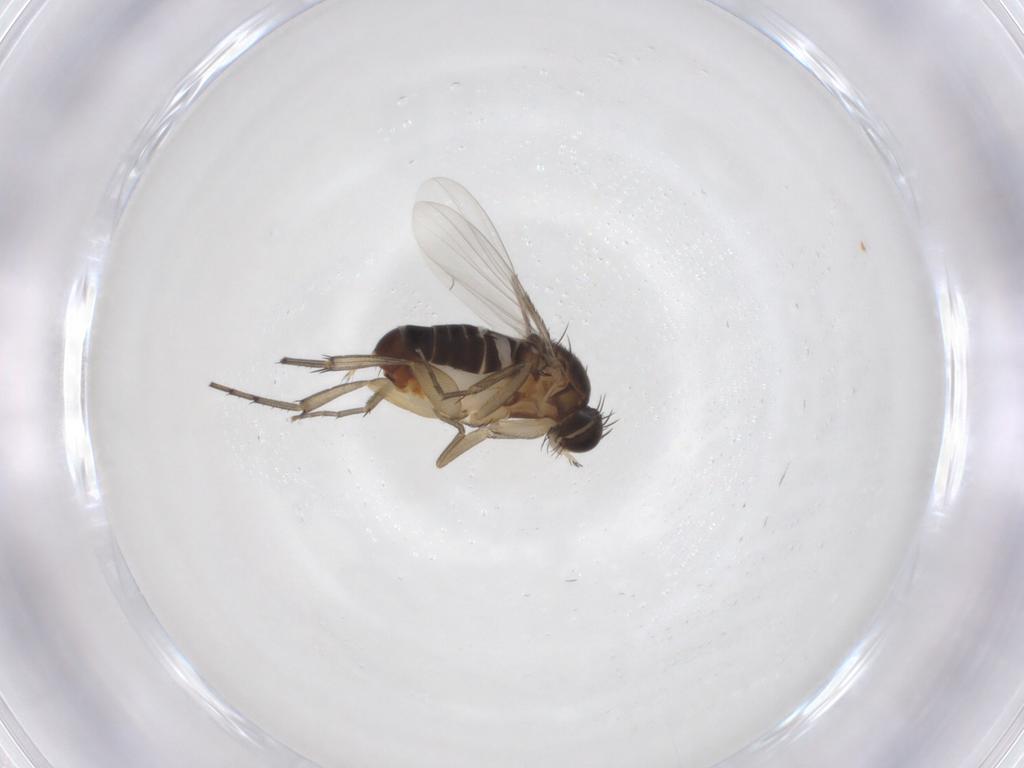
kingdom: Animalia
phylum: Arthropoda
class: Insecta
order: Diptera
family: Phoridae
